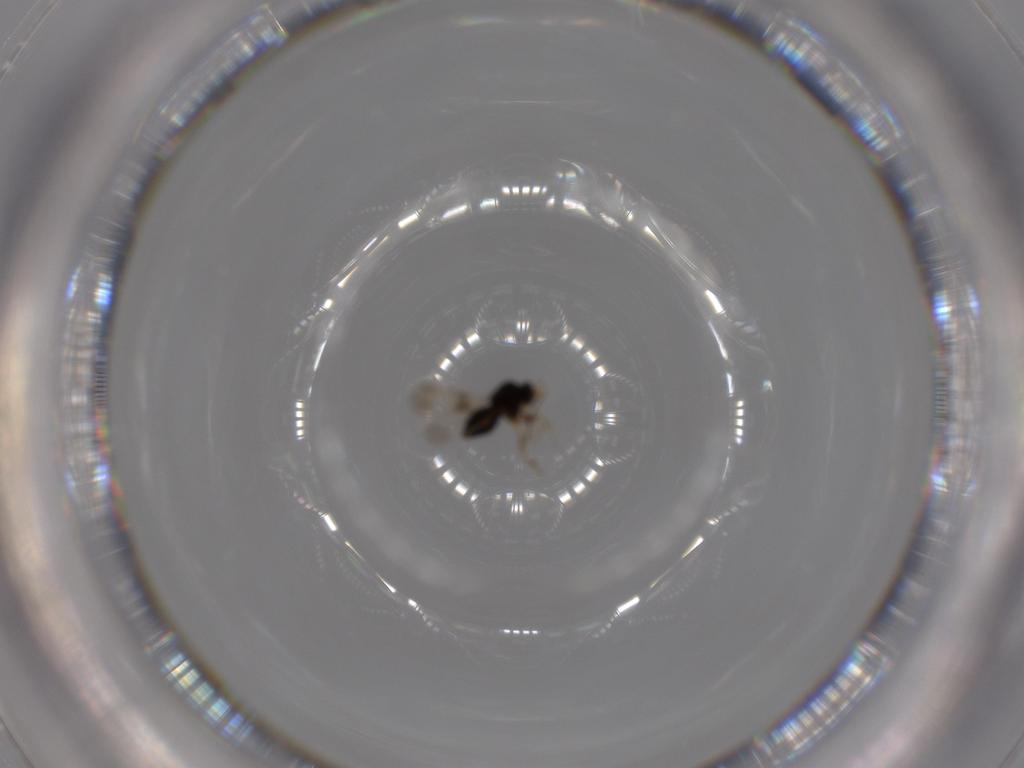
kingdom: Animalia
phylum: Arthropoda
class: Insecta
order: Hymenoptera
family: Eulophidae
